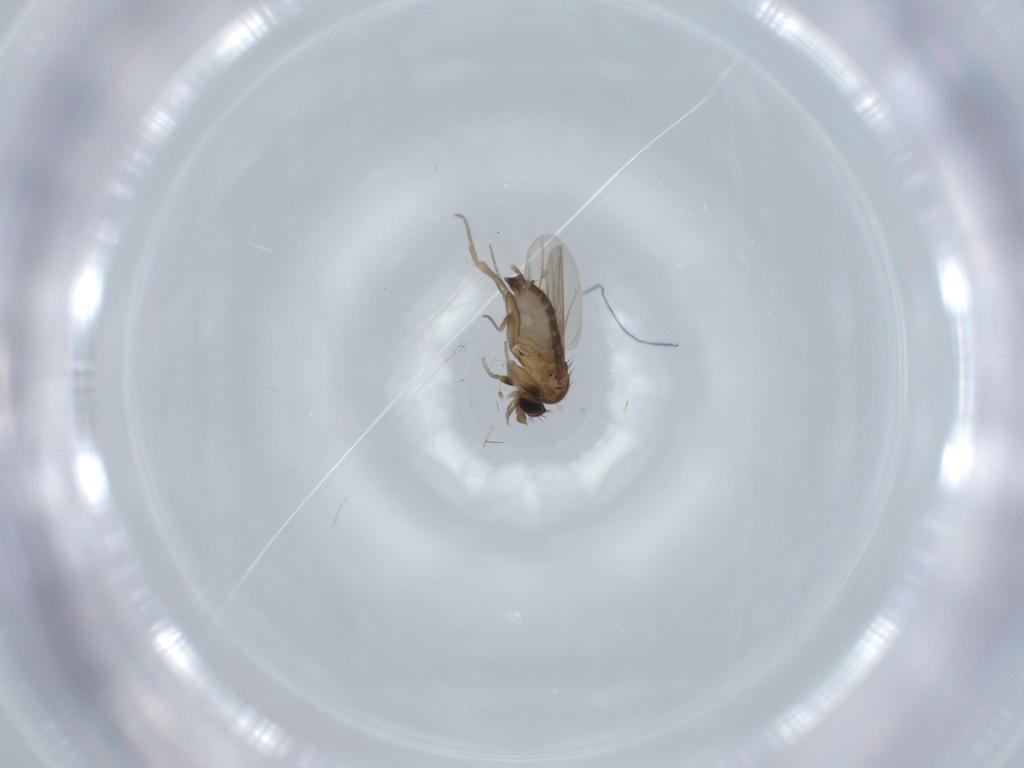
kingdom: Animalia
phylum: Arthropoda
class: Insecta
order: Diptera
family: Phoridae
